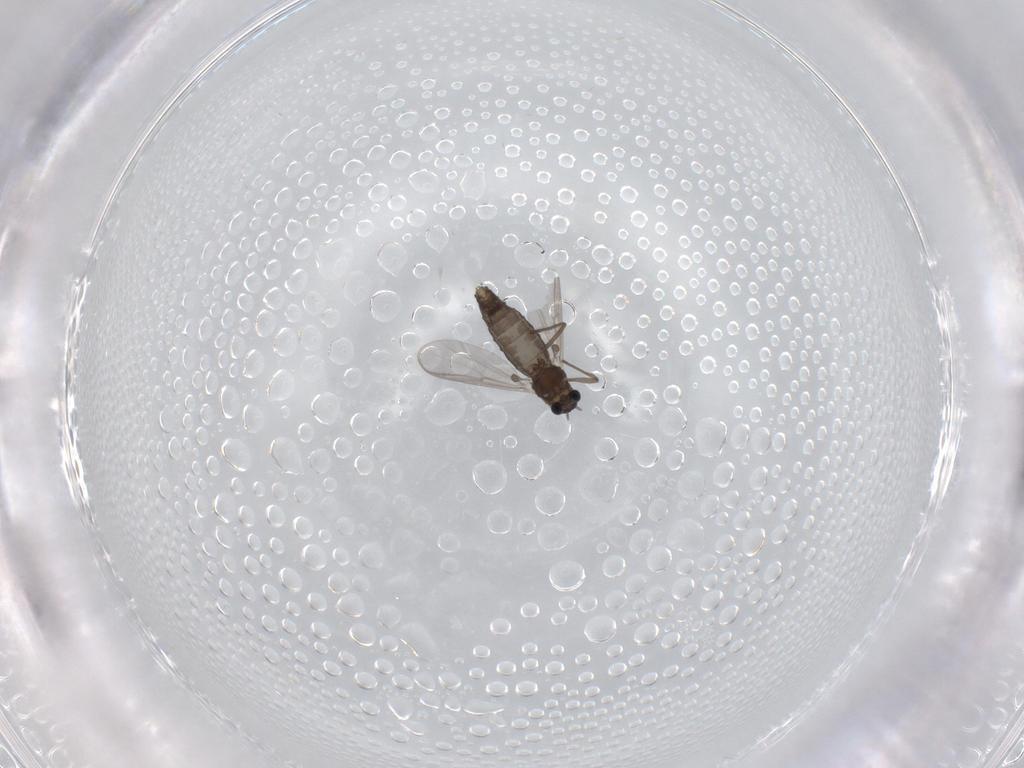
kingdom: Animalia
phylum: Arthropoda
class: Insecta
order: Diptera
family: Chironomidae
